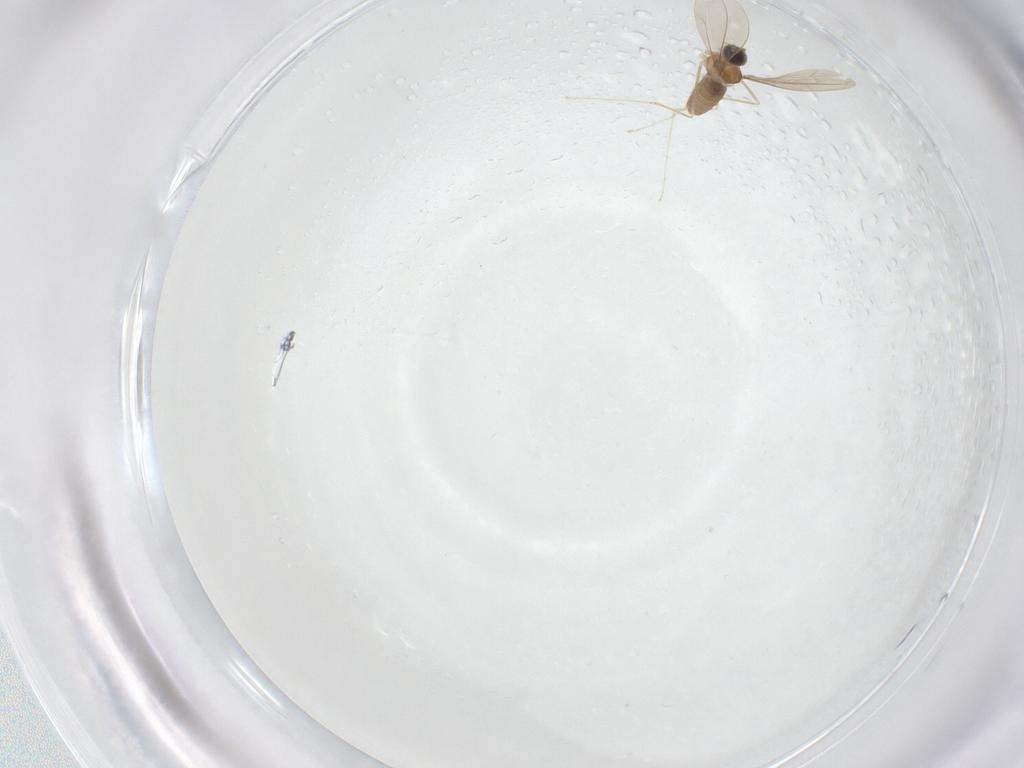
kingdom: Animalia
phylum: Arthropoda
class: Insecta
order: Diptera
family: Cecidomyiidae
